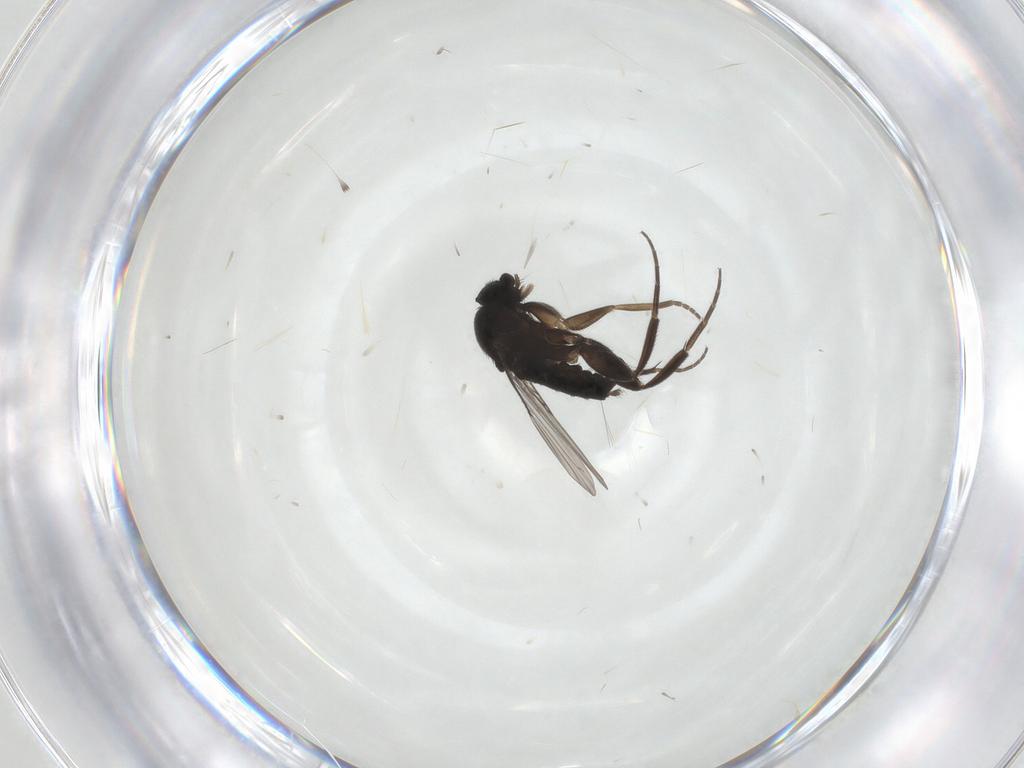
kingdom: Animalia
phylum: Arthropoda
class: Insecta
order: Diptera
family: Phoridae
